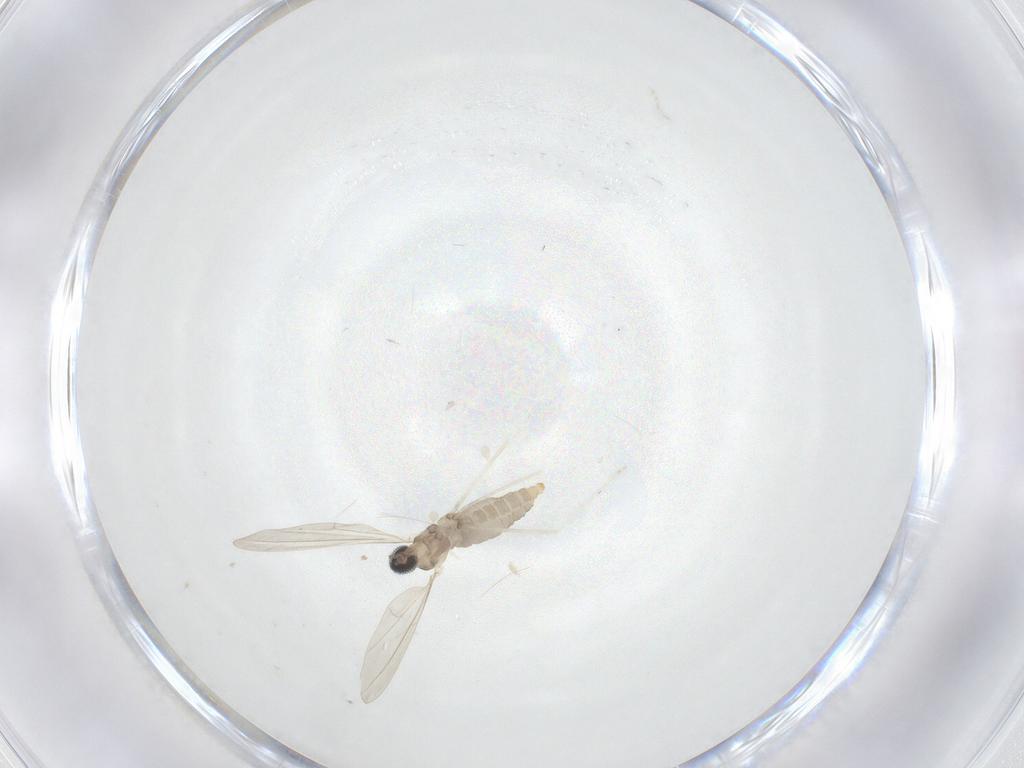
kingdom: Animalia
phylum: Arthropoda
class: Insecta
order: Diptera
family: Cecidomyiidae
